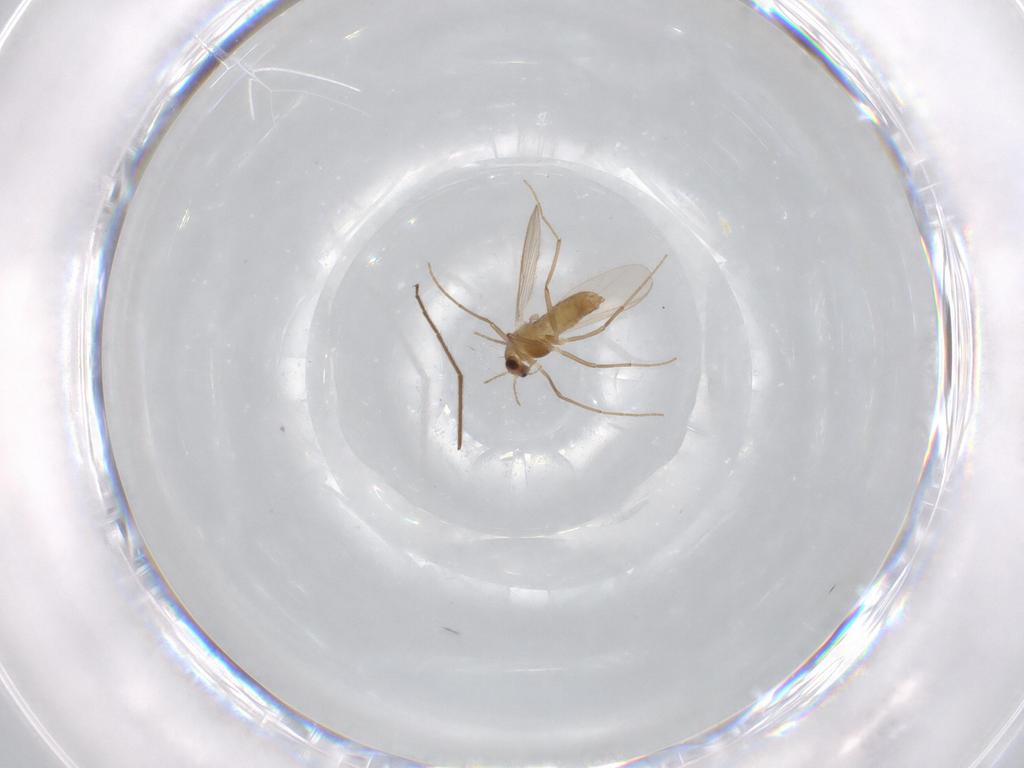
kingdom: Animalia
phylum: Arthropoda
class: Insecta
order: Diptera
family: Chironomidae
